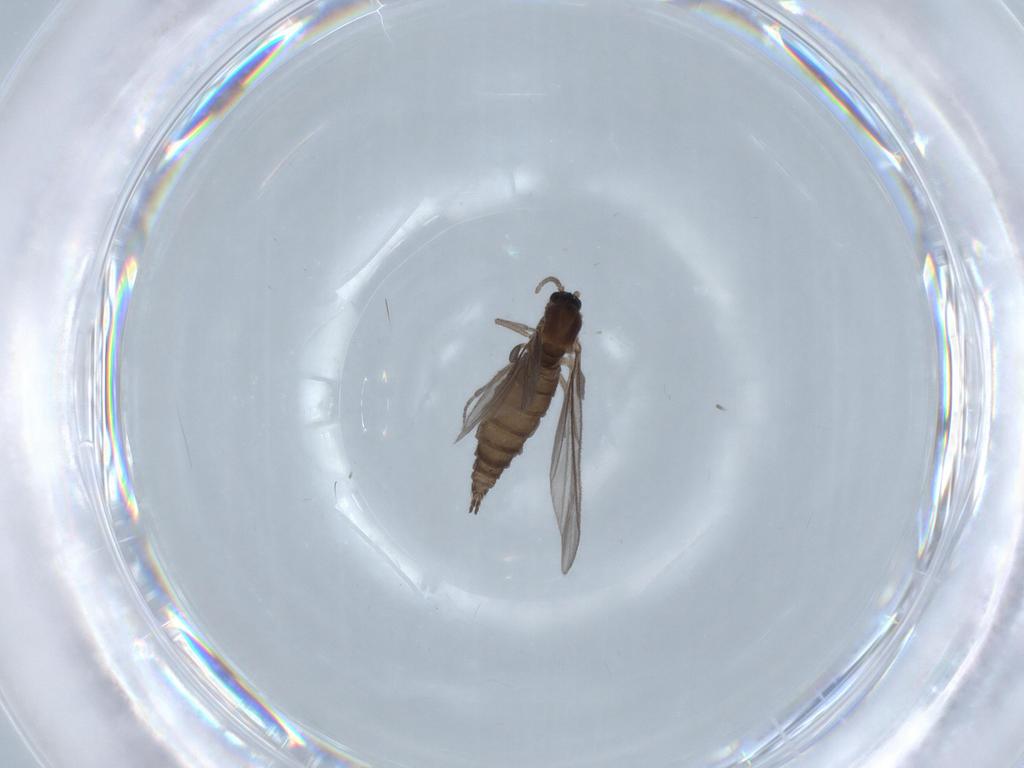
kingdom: Animalia
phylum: Arthropoda
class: Insecta
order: Diptera
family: Sciaridae
